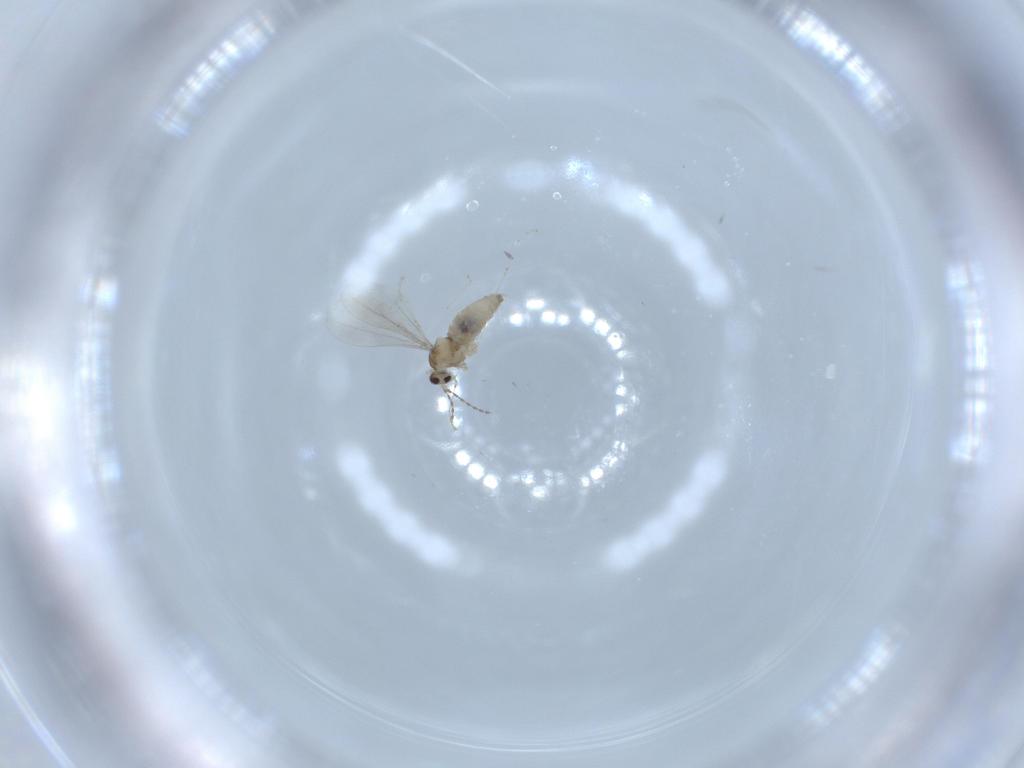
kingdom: Animalia
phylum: Arthropoda
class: Insecta
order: Diptera
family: Cecidomyiidae
